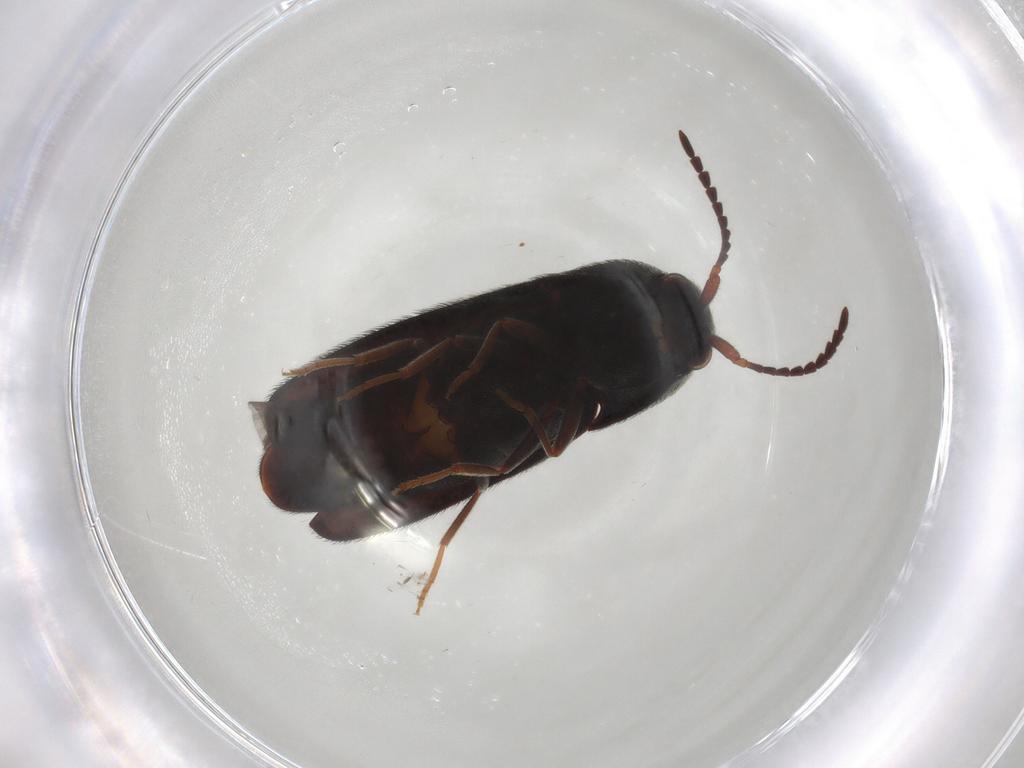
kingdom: Animalia
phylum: Arthropoda
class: Insecta
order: Coleoptera
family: Eucnemidae
